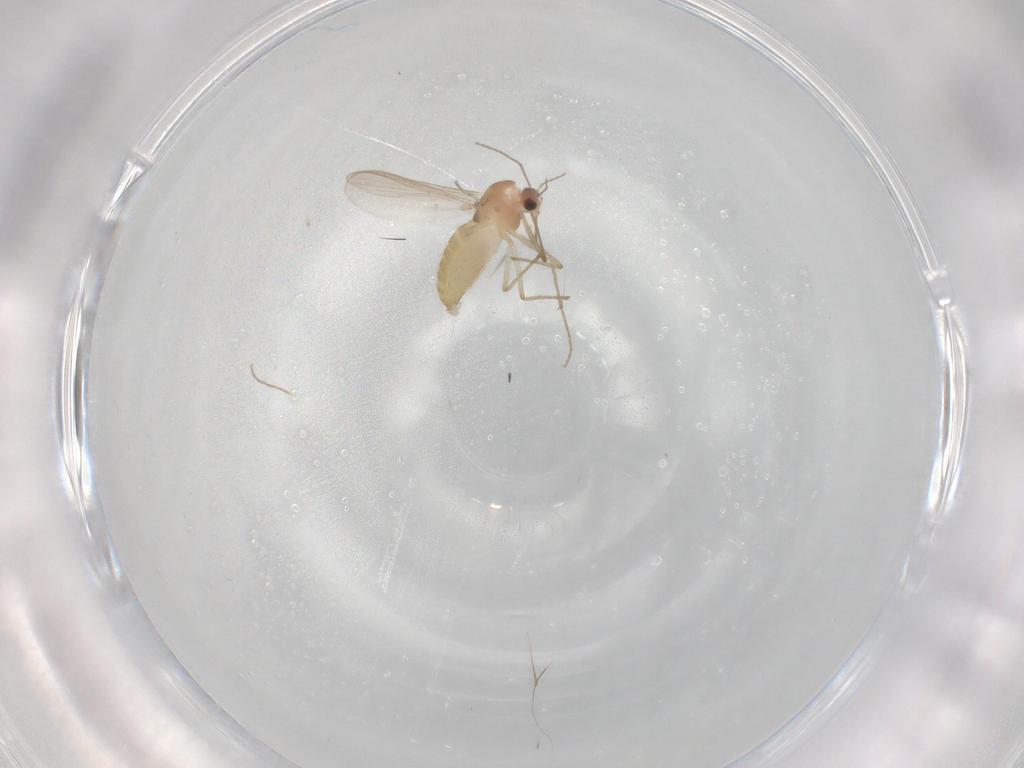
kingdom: Animalia
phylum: Arthropoda
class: Insecta
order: Diptera
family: Chironomidae
